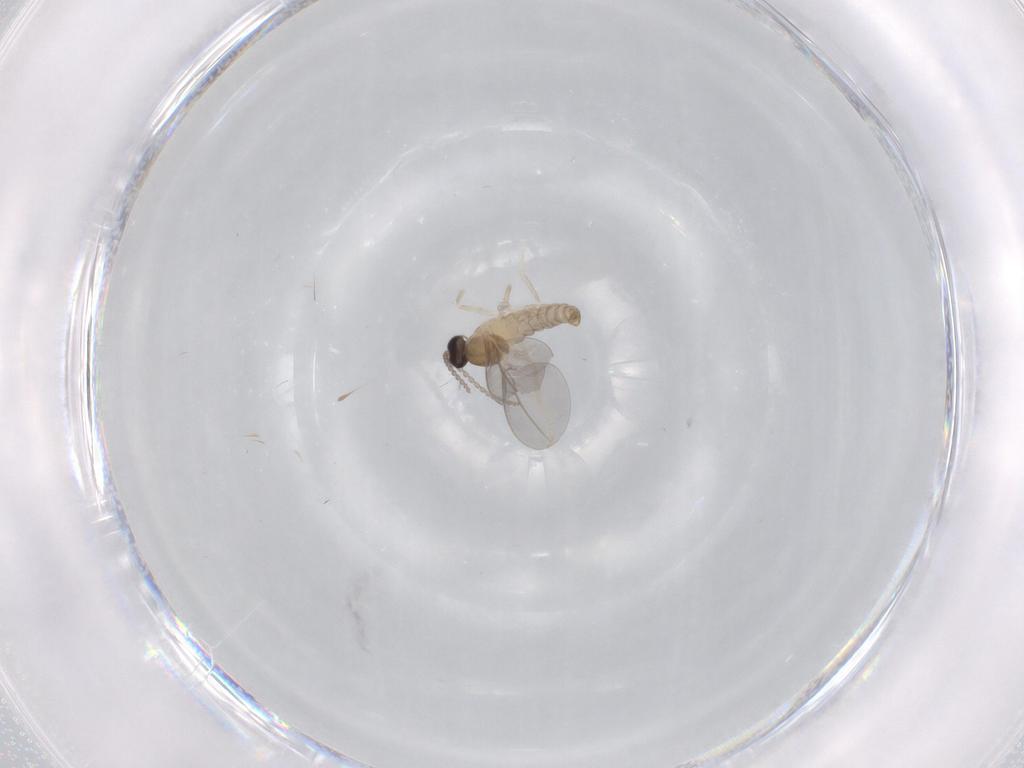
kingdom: Animalia
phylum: Arthropoda
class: Insecta
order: Diptera
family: Cecidomyiidae
